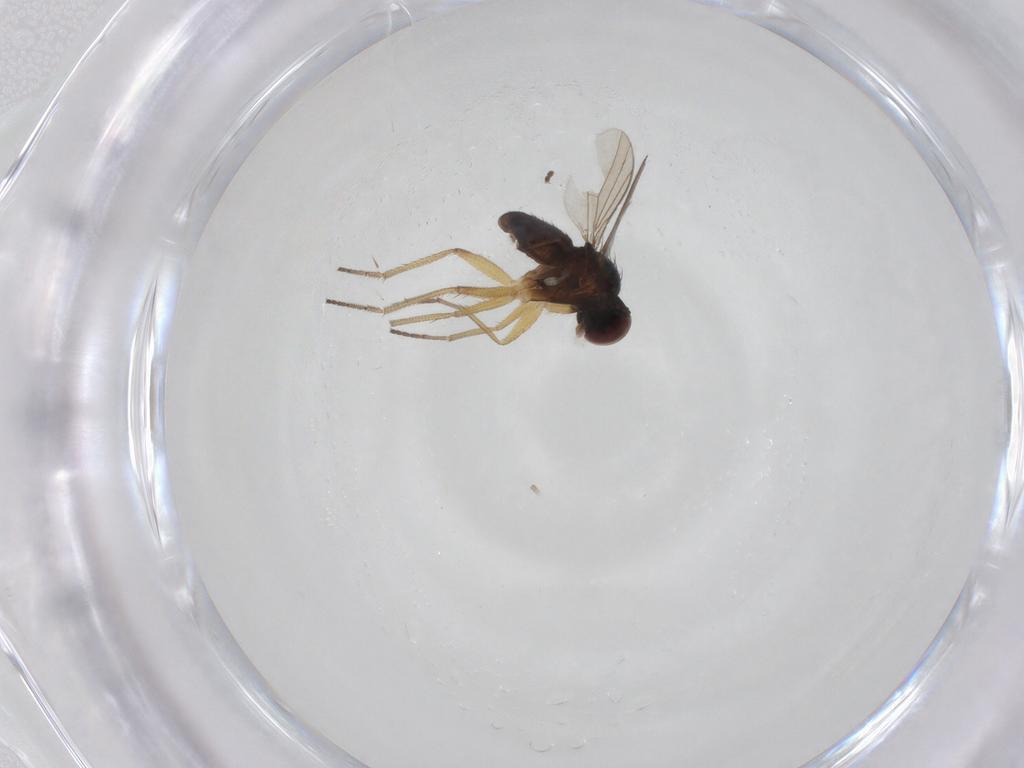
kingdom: Animalia
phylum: Arthropoda
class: Insecta
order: Diptera
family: Dolichopodidae
